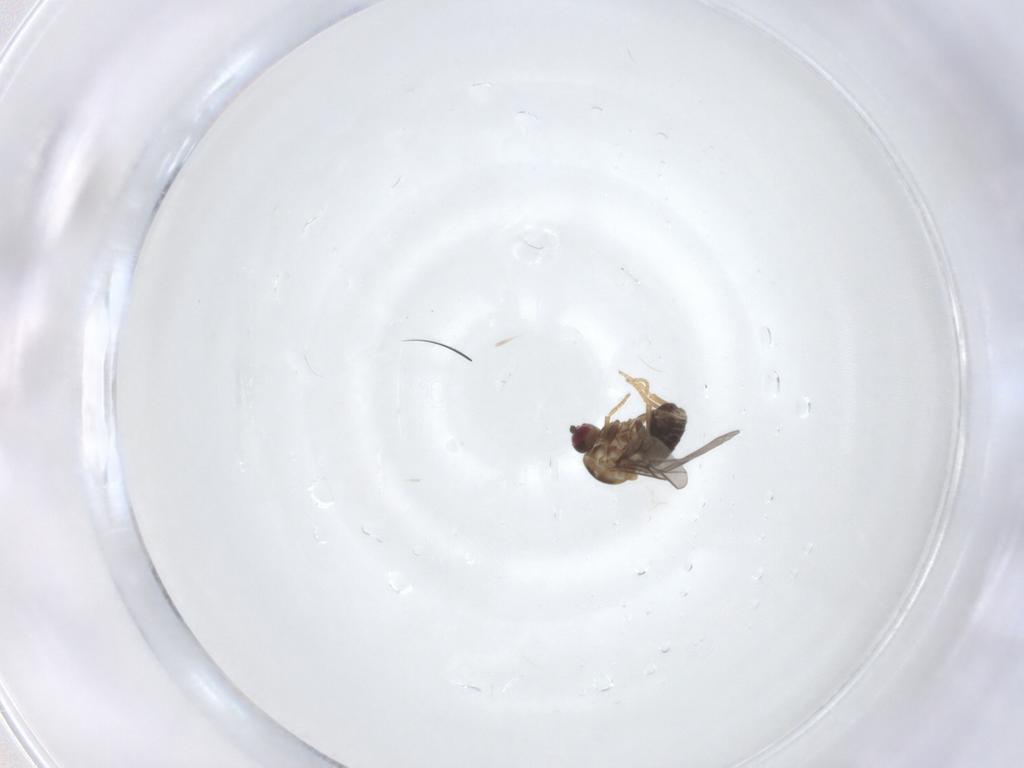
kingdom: Animalia
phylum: Arthropoda
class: Insecta
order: Diptera
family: Mythicomyiidae
